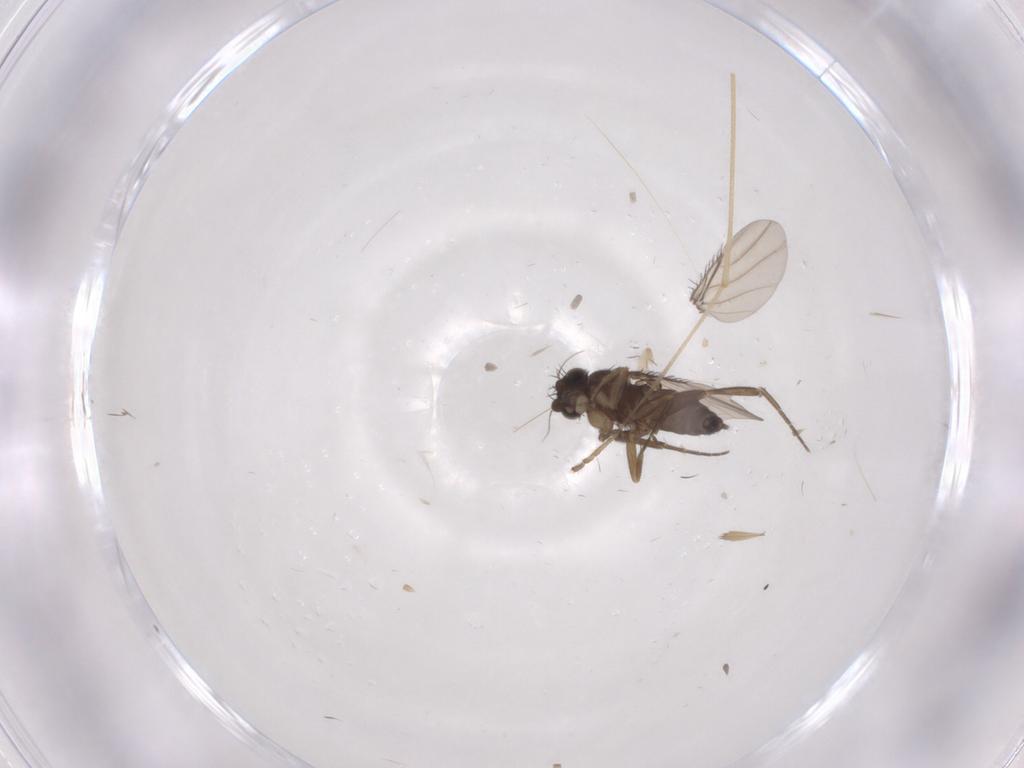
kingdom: Animalia
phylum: Arthropoda
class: Insecta
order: Diptera
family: Phoridae
